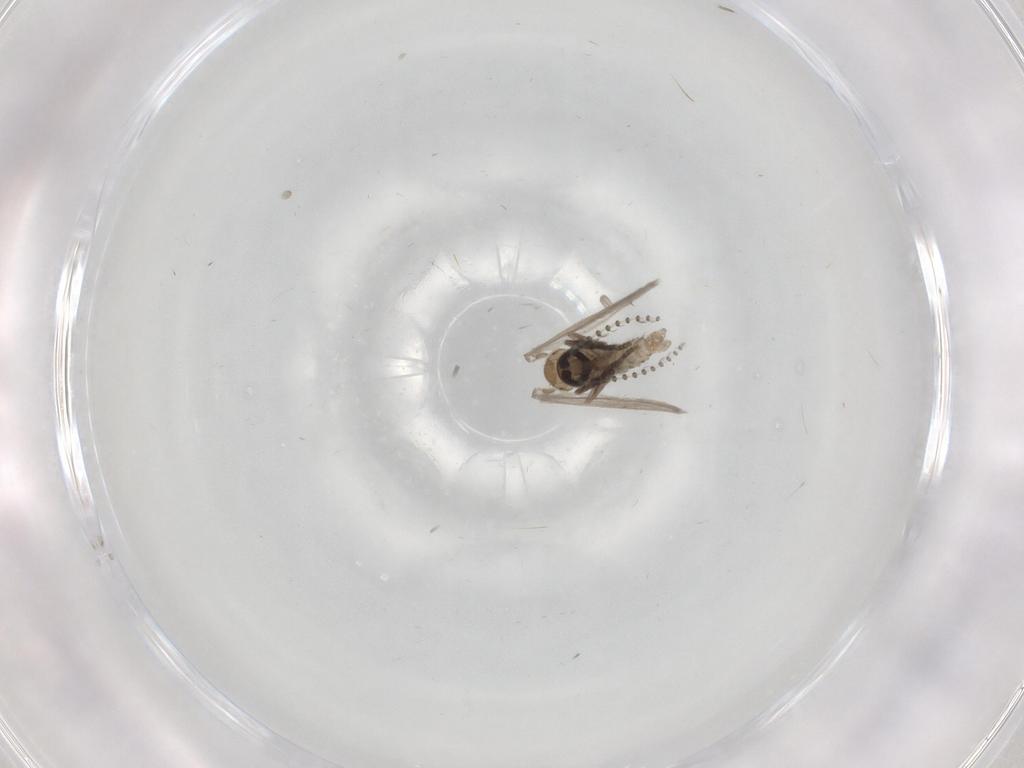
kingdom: Animalia
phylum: Arthropoda
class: Insecta
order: Diptera
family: Psychodidae
